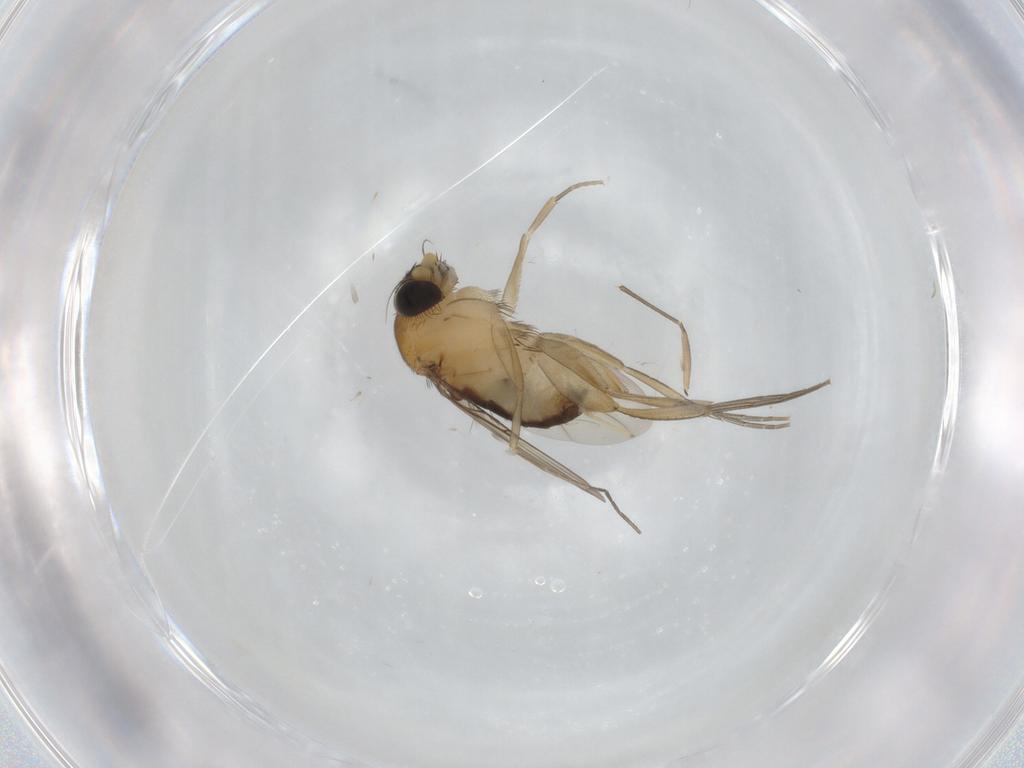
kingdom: Animalia
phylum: Arthropoda
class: Insecta
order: Diptera
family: Phoridae
